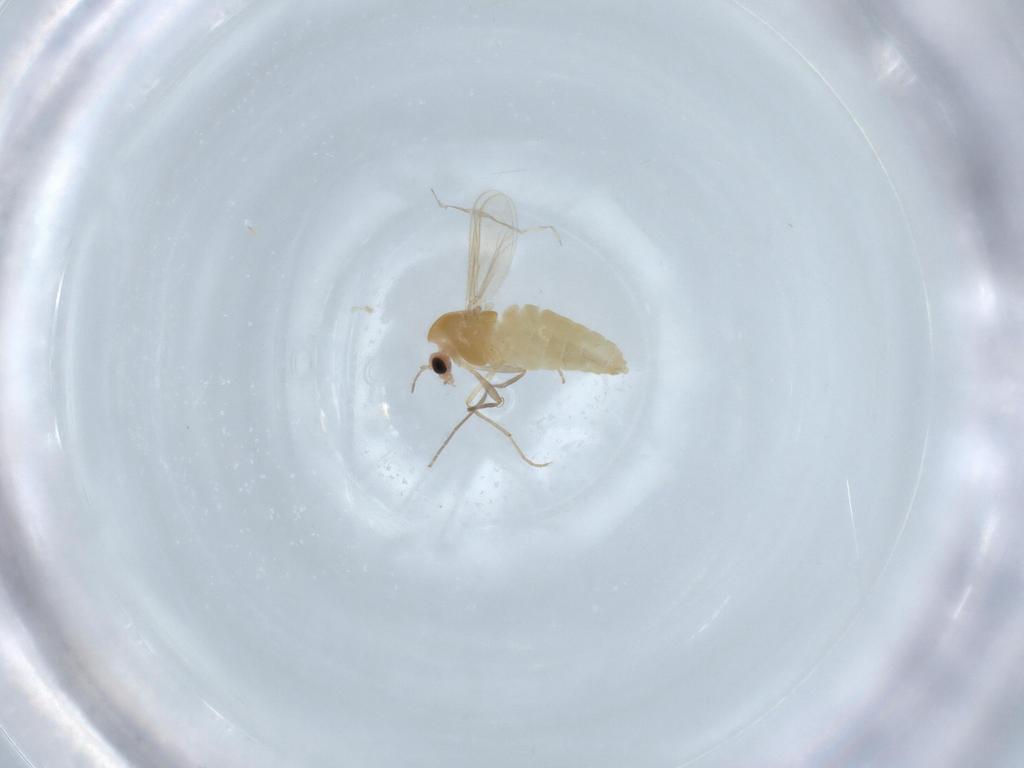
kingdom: Animalia
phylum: Arthropoda
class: Insecta
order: Diptera
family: Chironomidae
